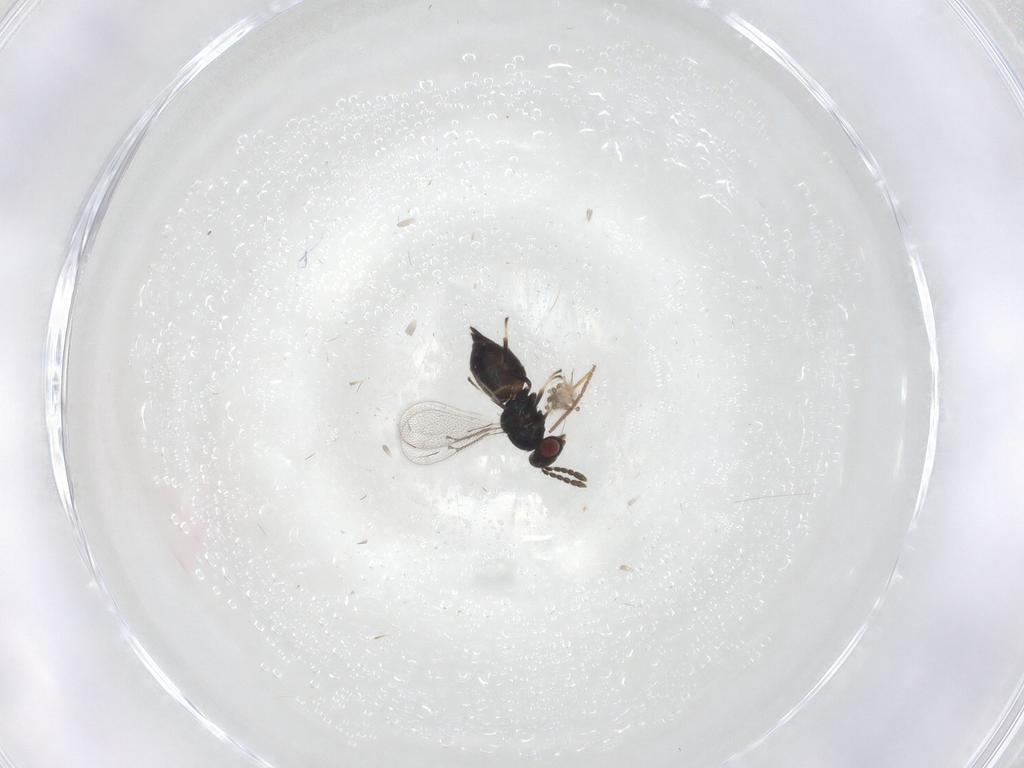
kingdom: Animalia
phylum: Arthropoda
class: Insecta
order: Hymenoptera
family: Eulophidae
